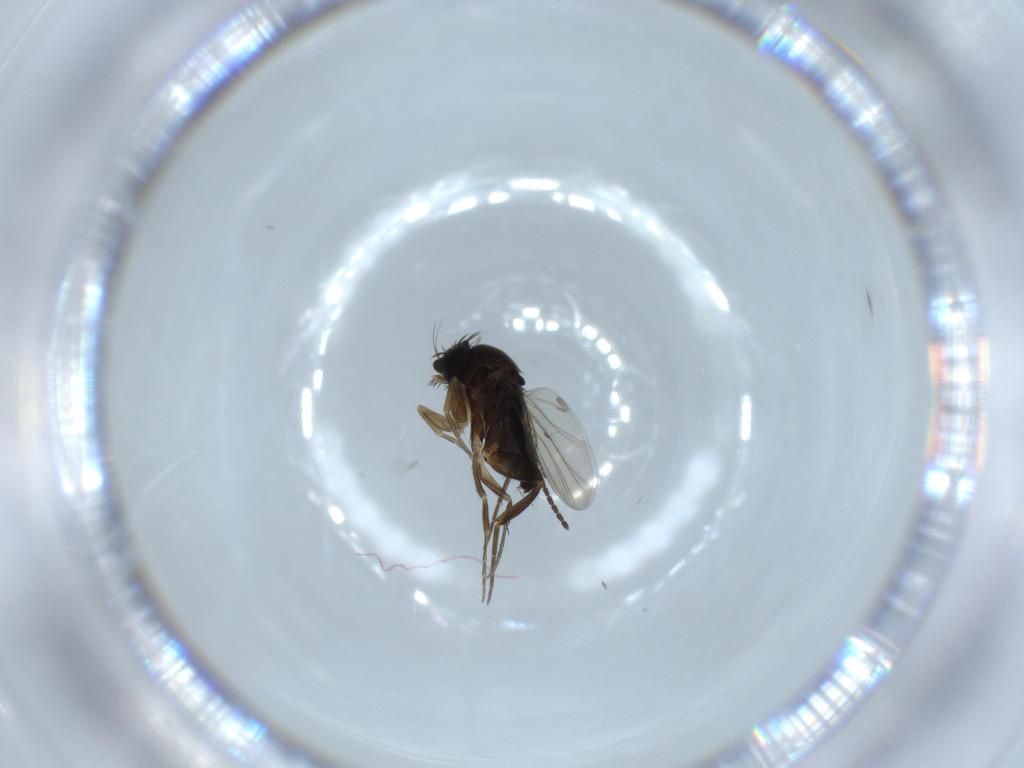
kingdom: Animalia
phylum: Arthropoda
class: Insecta
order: Diptera
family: Phoridae
